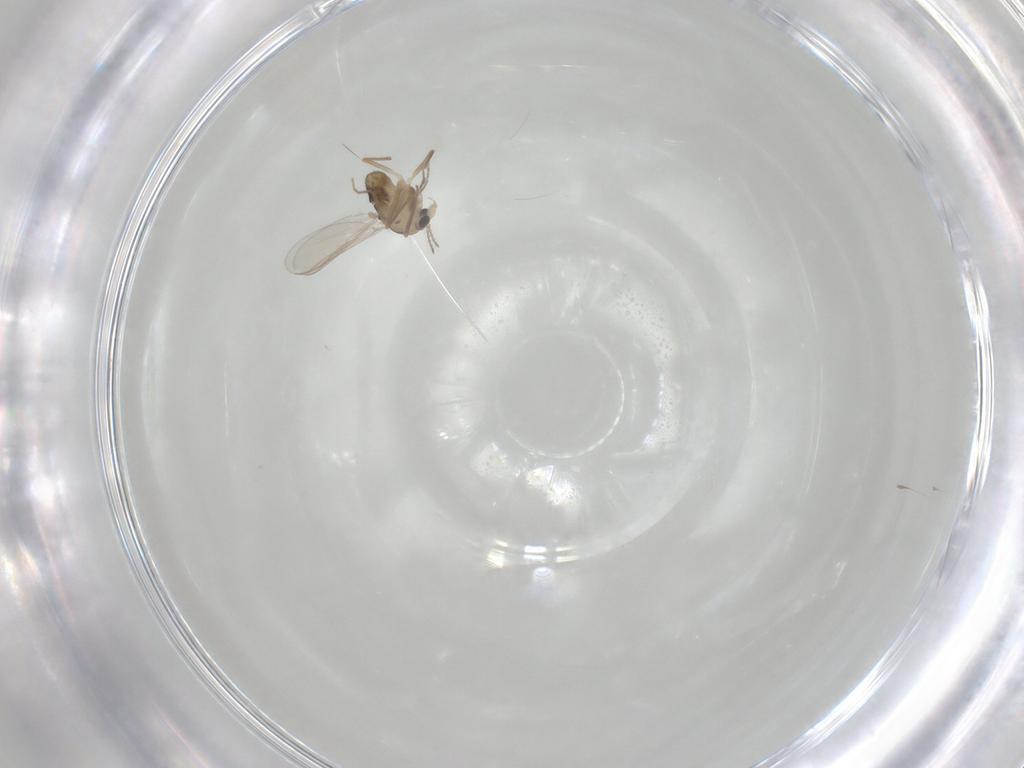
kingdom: Animalia
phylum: Arthropoda
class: Insecta
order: Diptera
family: Chironomidae
